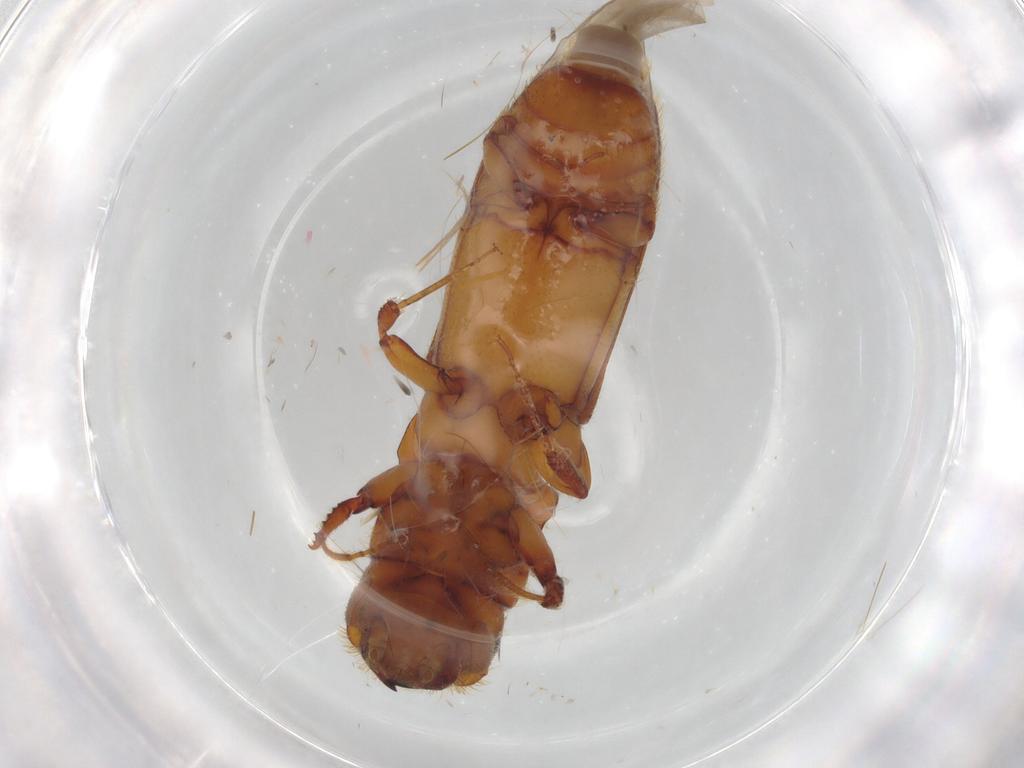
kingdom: Animalia
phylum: Arthropoda
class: Insecta
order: Coleoptera
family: Curculionidae
